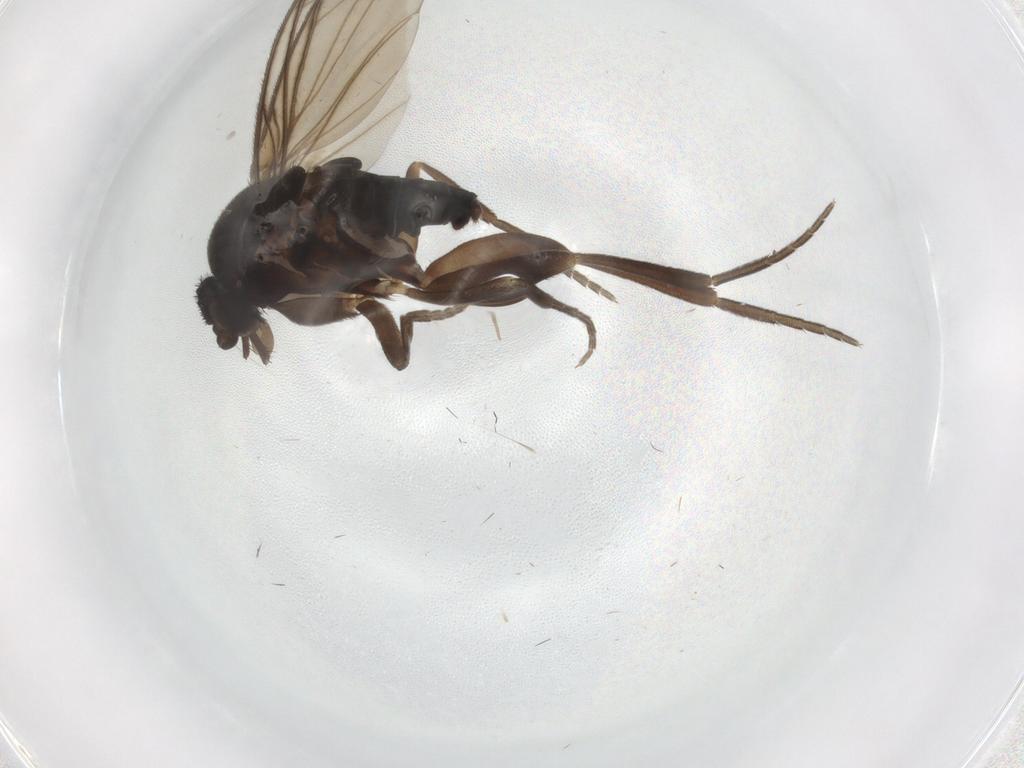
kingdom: Animalia
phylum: Arthropoda
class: Insecta
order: Diptera
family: Phoridae
